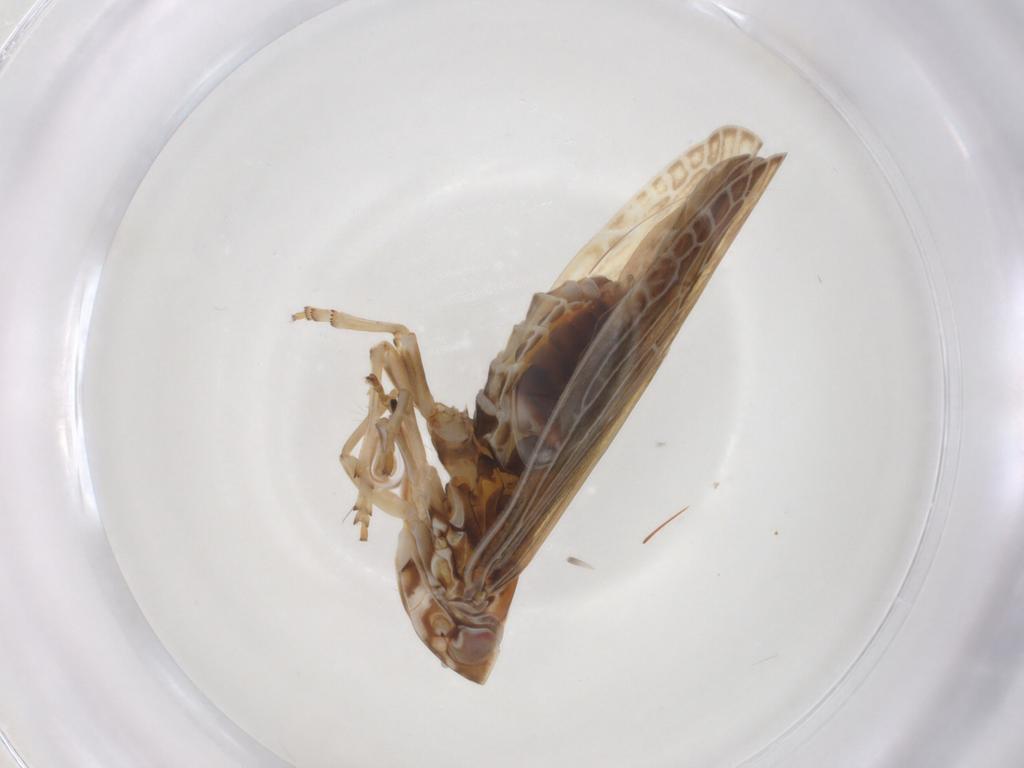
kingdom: Animalia
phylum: Arthropoda
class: Insecta
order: Hemiptera
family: Achilidae
